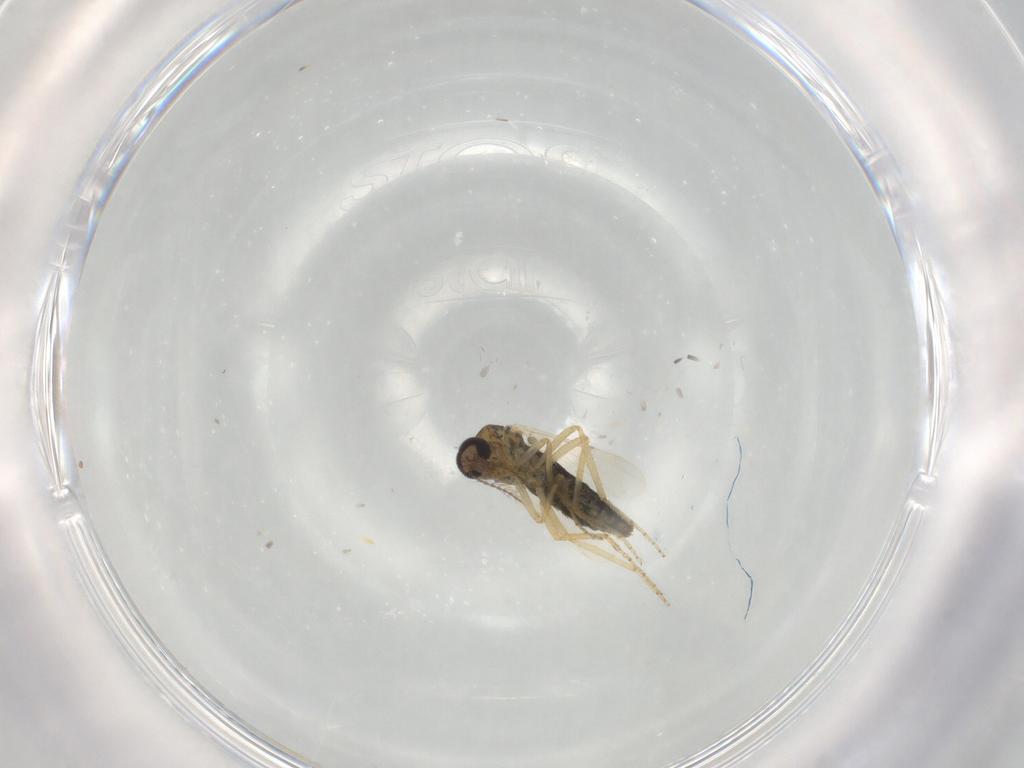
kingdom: Animalia
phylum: Arthropoda
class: Insecta
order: Diptera
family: Ceratopogonidae
